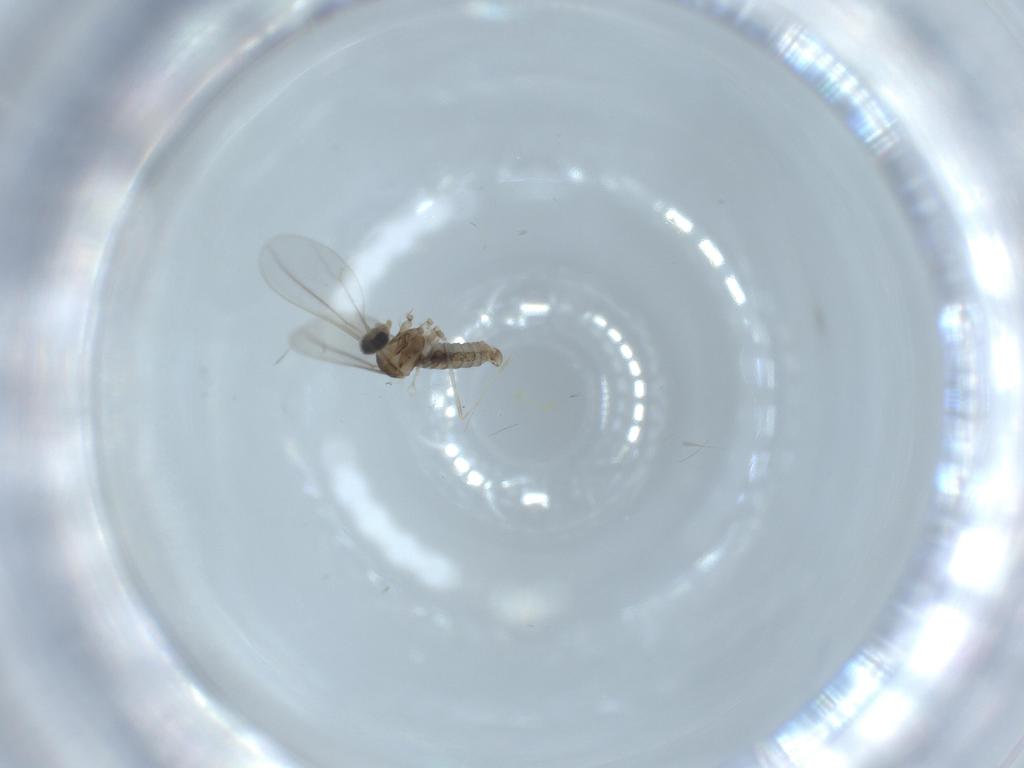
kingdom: Animalia
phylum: Arthropoda
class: Insecta
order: Diptera
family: Cecidomyiidae
